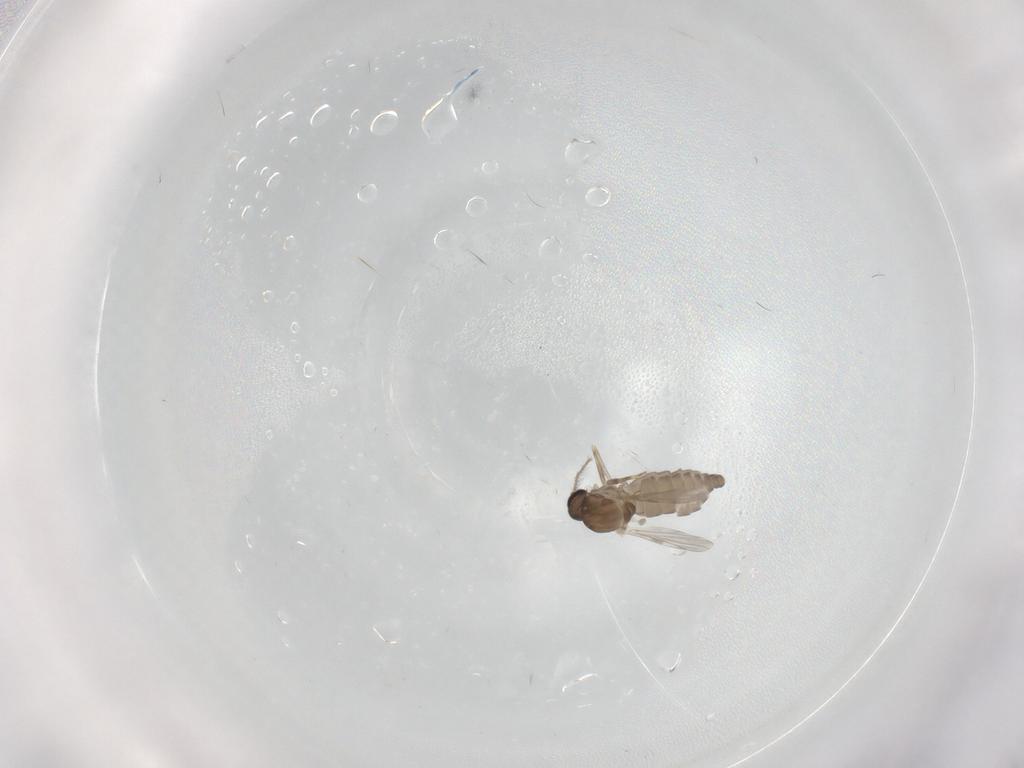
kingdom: Animalia
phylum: Arthropoda
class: Insecta
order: Diptera
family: Ceratopogonidae
